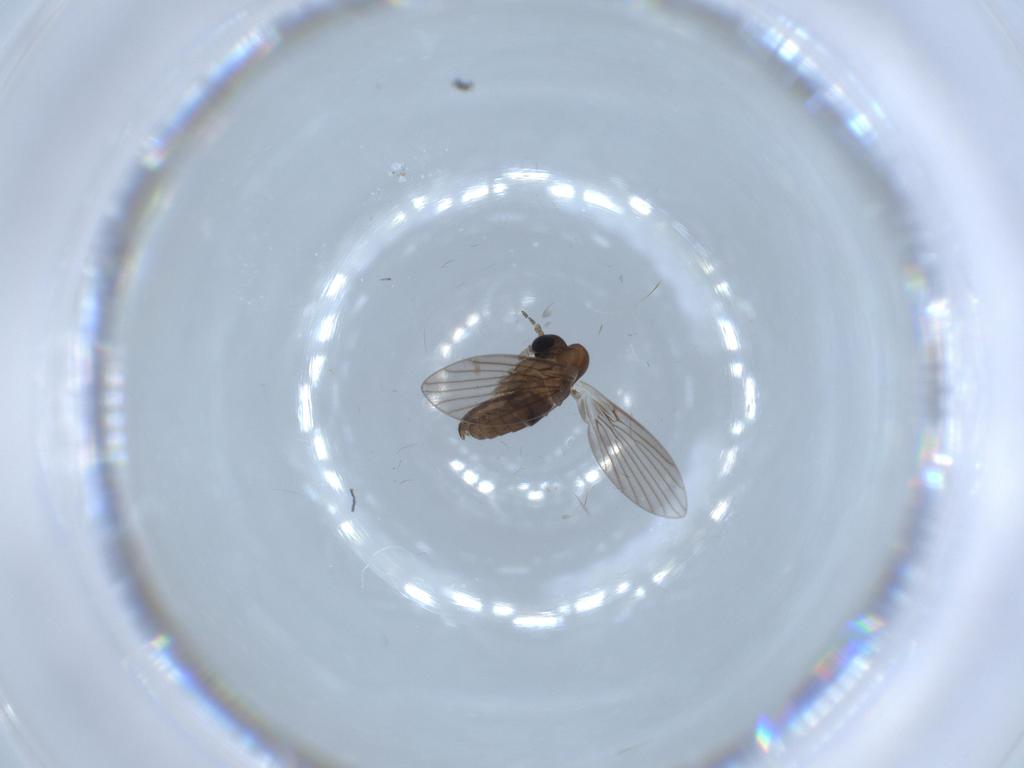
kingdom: Animalia
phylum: Arthropoda
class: Insecta
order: Diptera
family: Psychodidae
